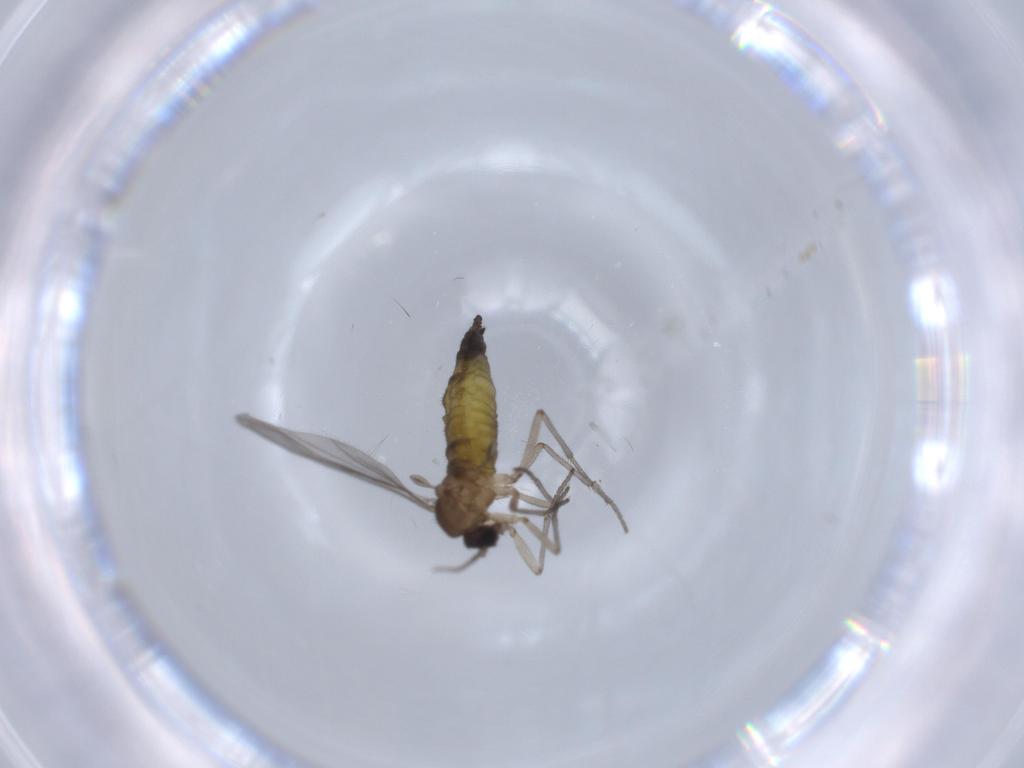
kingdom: Animalia
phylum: Arthropoda
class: Insecta
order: Diptera
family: Sciaridae
